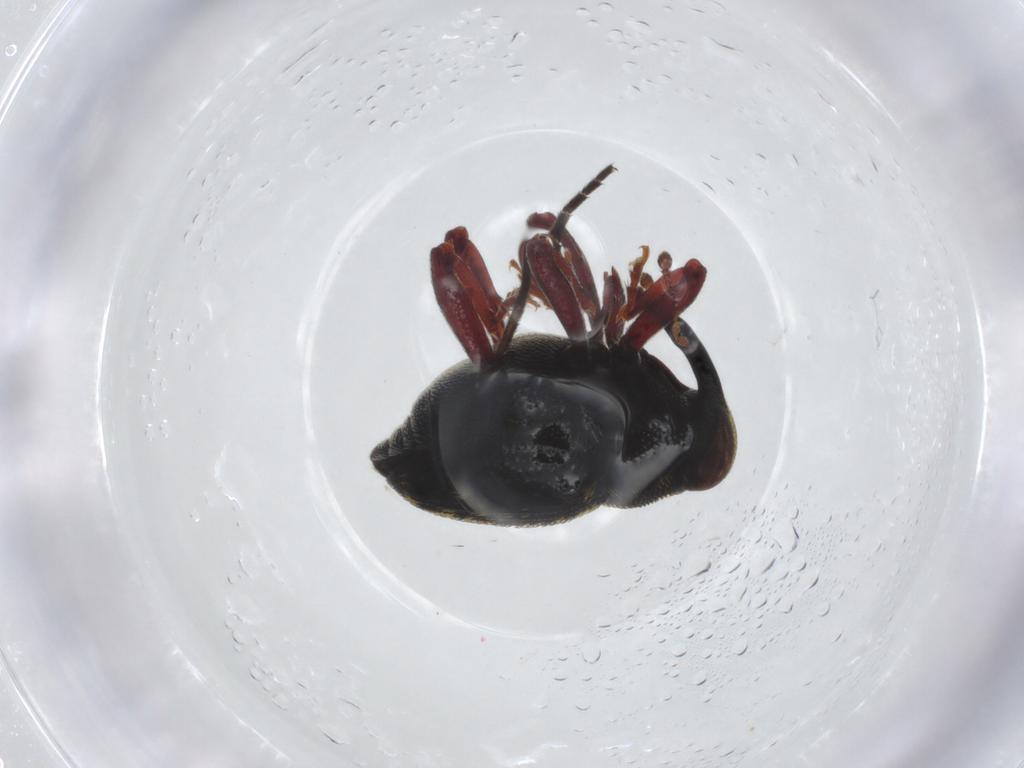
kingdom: Animalia
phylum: Arthropoda
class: Insecta
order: Coleoptera
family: Curculionidae
